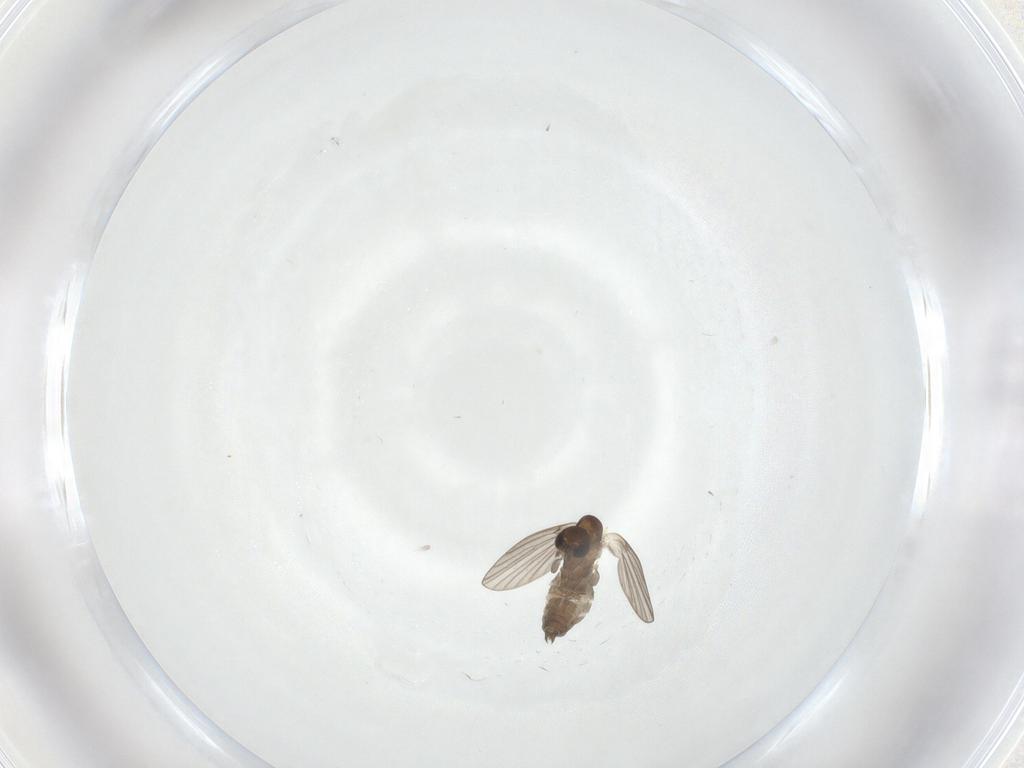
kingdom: Animalia
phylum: Arthropoda
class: Insecta
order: Diptera
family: Psychodidae
